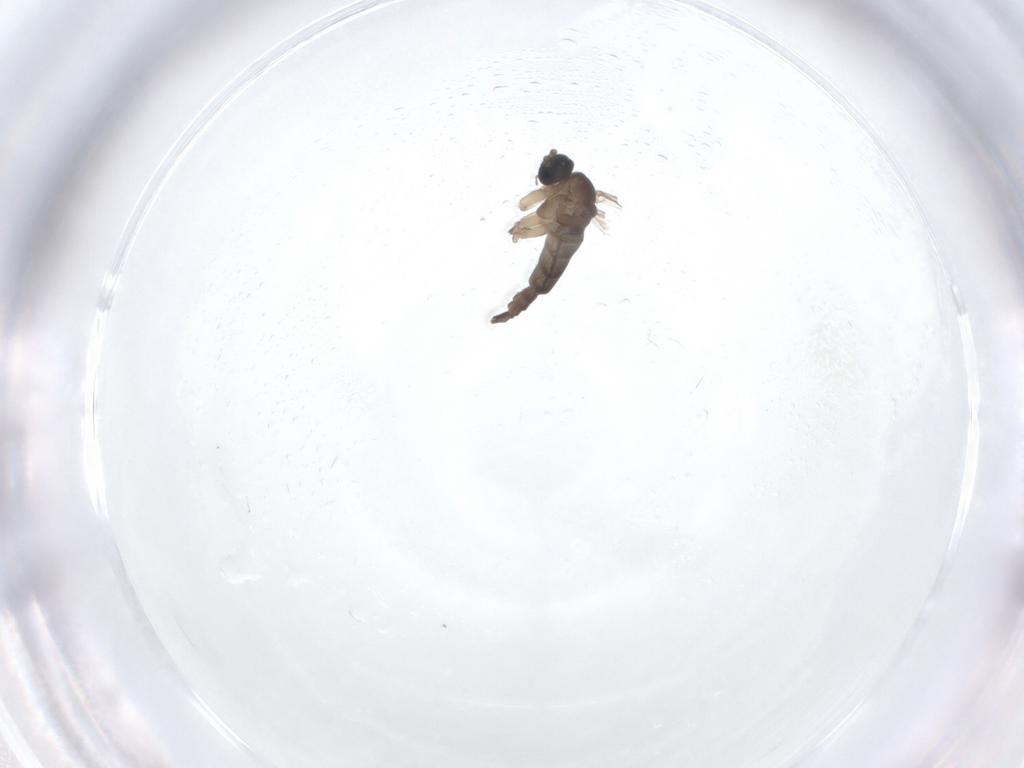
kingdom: Animalia
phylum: Arthropoda
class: Insecta
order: Diptera
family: Sciaridae
